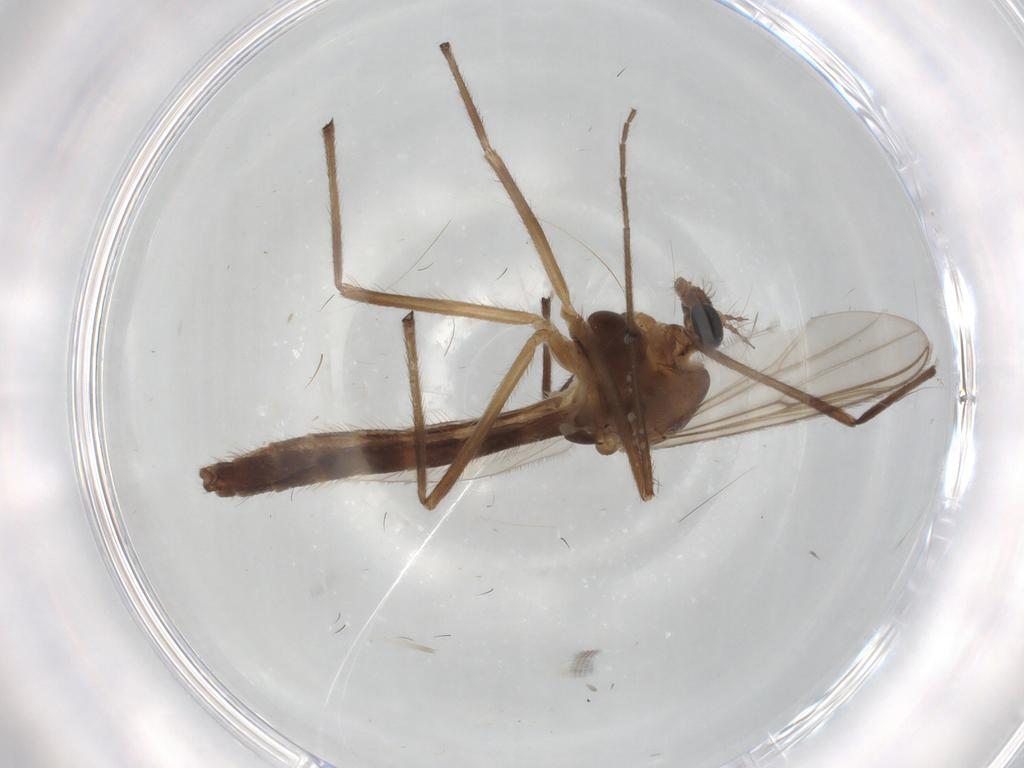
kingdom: Animalia
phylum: Arthropoda
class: Insecta
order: Diptera
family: Chironomidae
